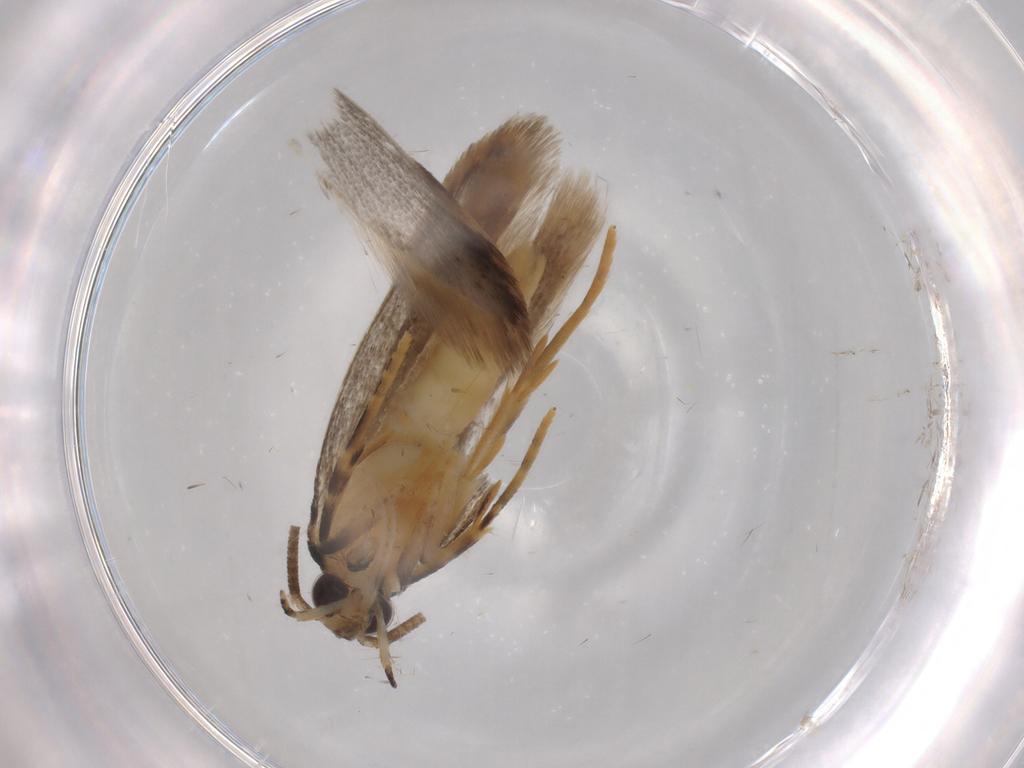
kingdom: Animalia
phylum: Arthropoda
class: Insecta
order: Lepidoptera
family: Autostichidae
